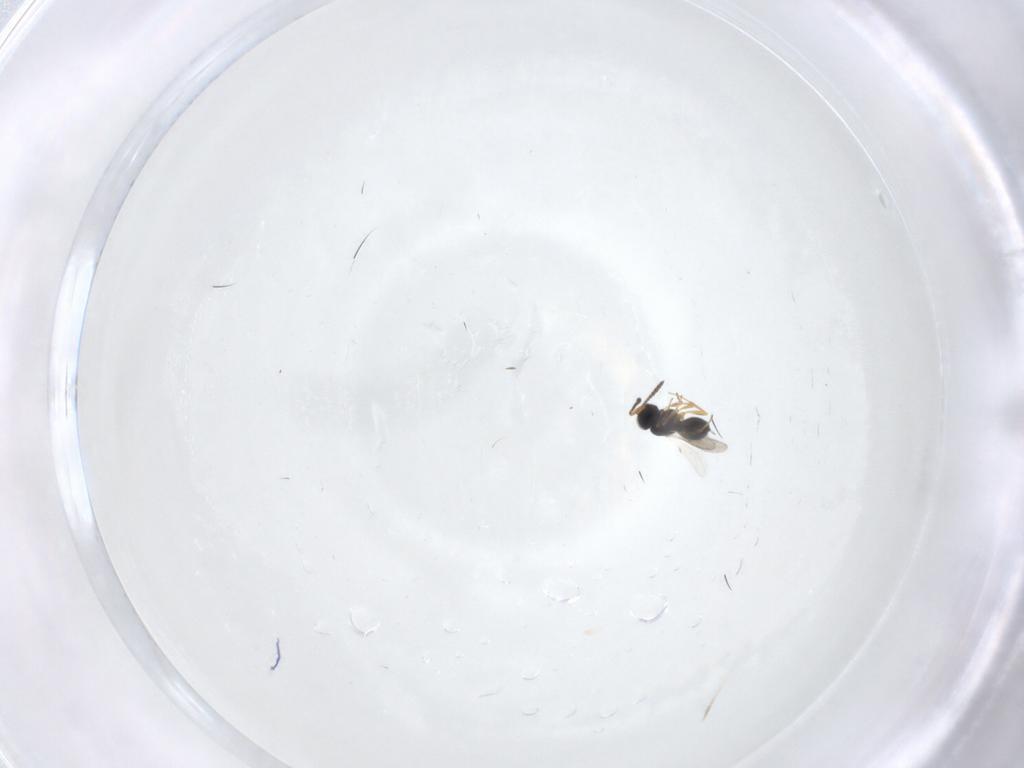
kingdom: Animalia
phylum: Arthropoda
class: Insecta
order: Hymenoptera
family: Scelionidae
